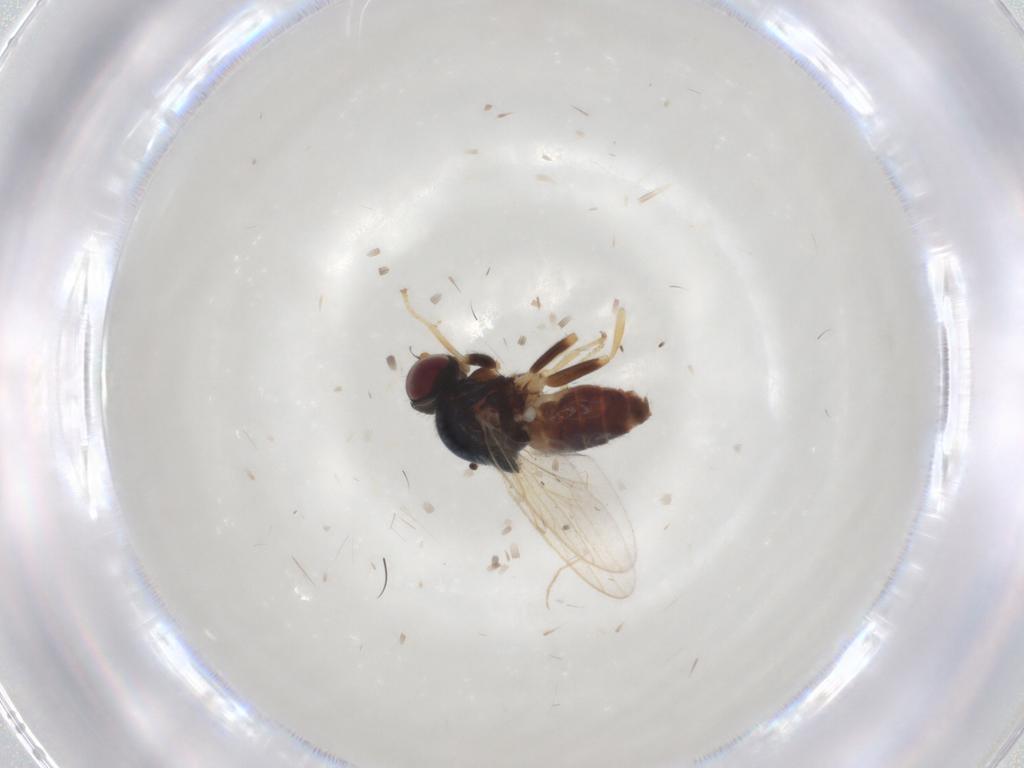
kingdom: Animalia
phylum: Arthropoda
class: Insecta
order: Diptera
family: Chloropidae
